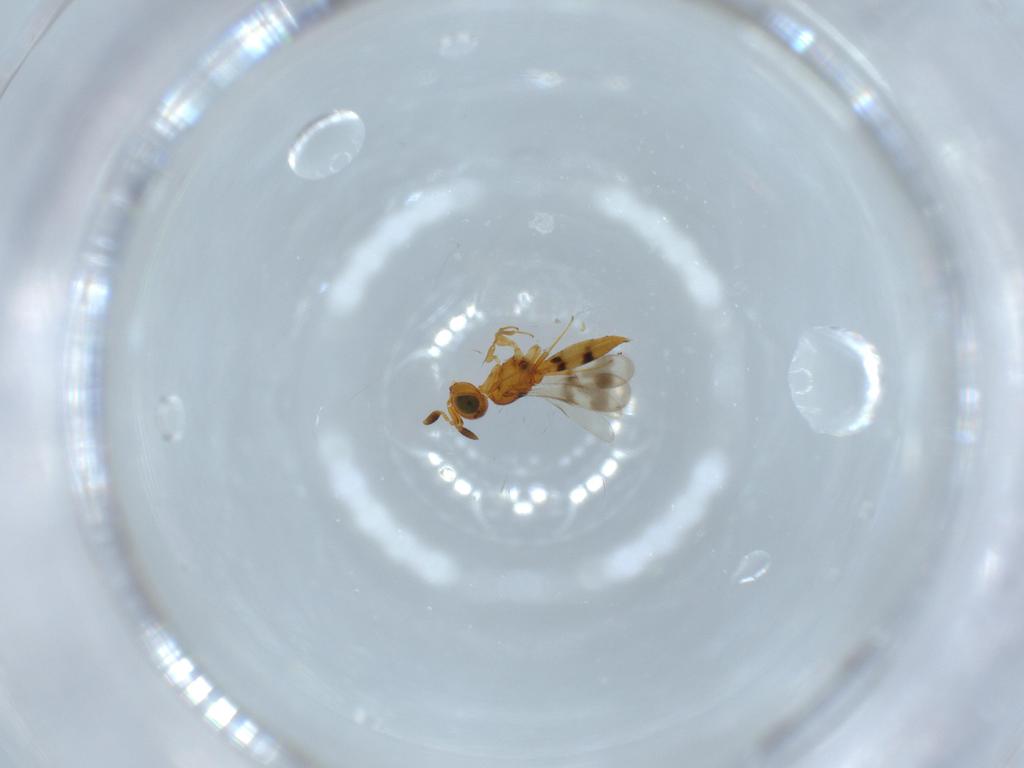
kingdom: Animalia
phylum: Arthropoda
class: Insecta
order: Hymenoptera
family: Scelionidae
